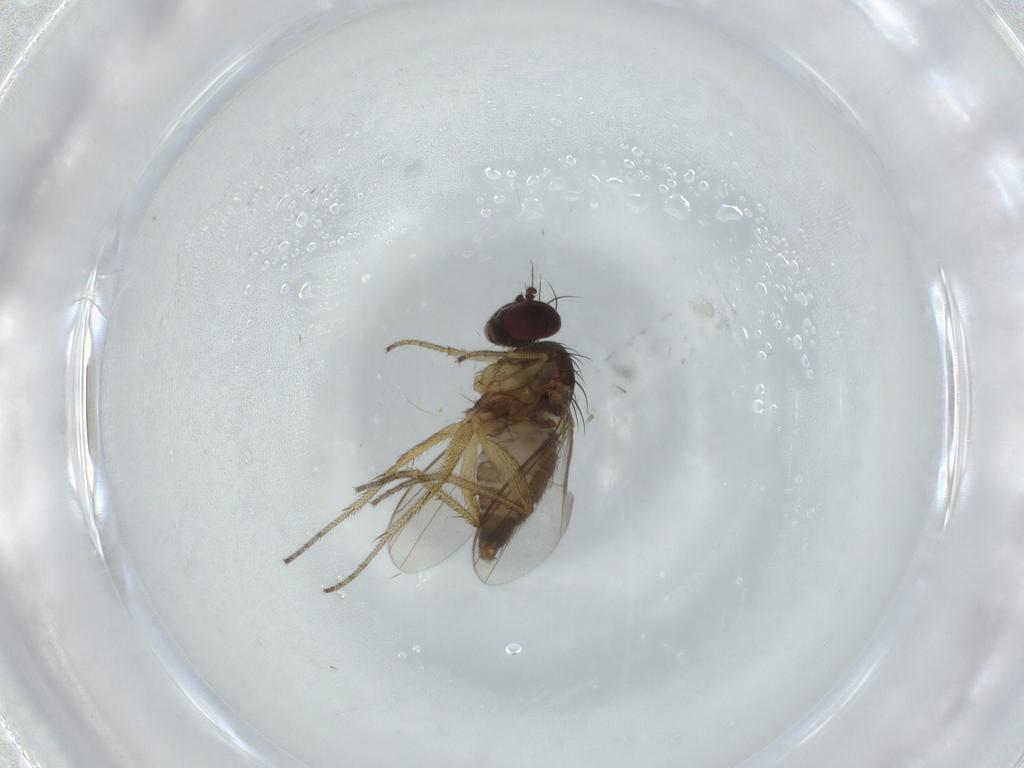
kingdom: Animalia
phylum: Arthropoda
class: Insecta
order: Diptera
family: Dolichopodidae
